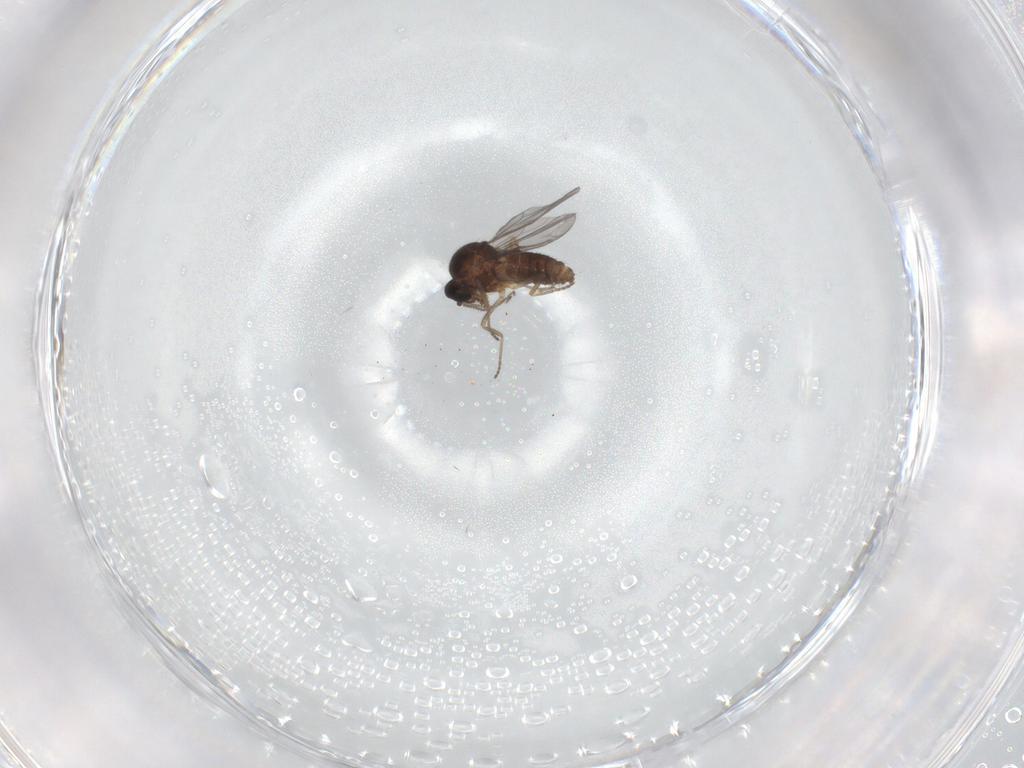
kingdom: Animalia
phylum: Arthropoda
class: Insecta
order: Diptera
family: Ceratopogonidae
